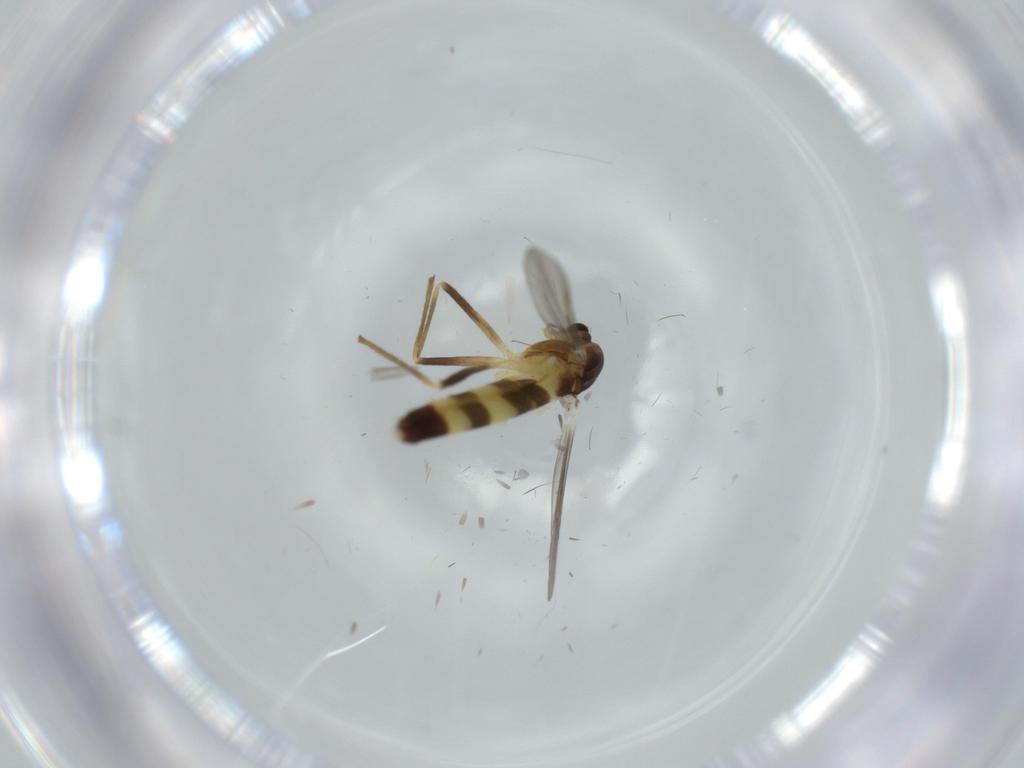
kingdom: Animalia
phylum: Arthropoda
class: Insecta
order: Diptera
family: Chironomidae
